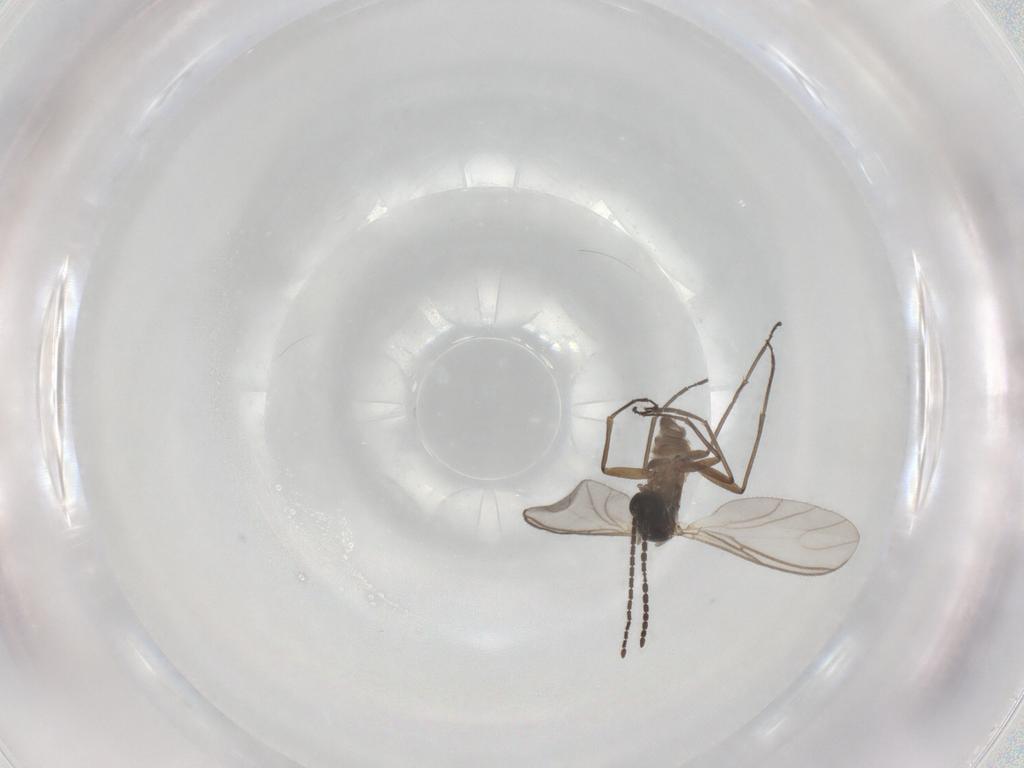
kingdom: Animalia
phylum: Arthropoda
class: Insecta
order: Diptera
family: Sciaridae
